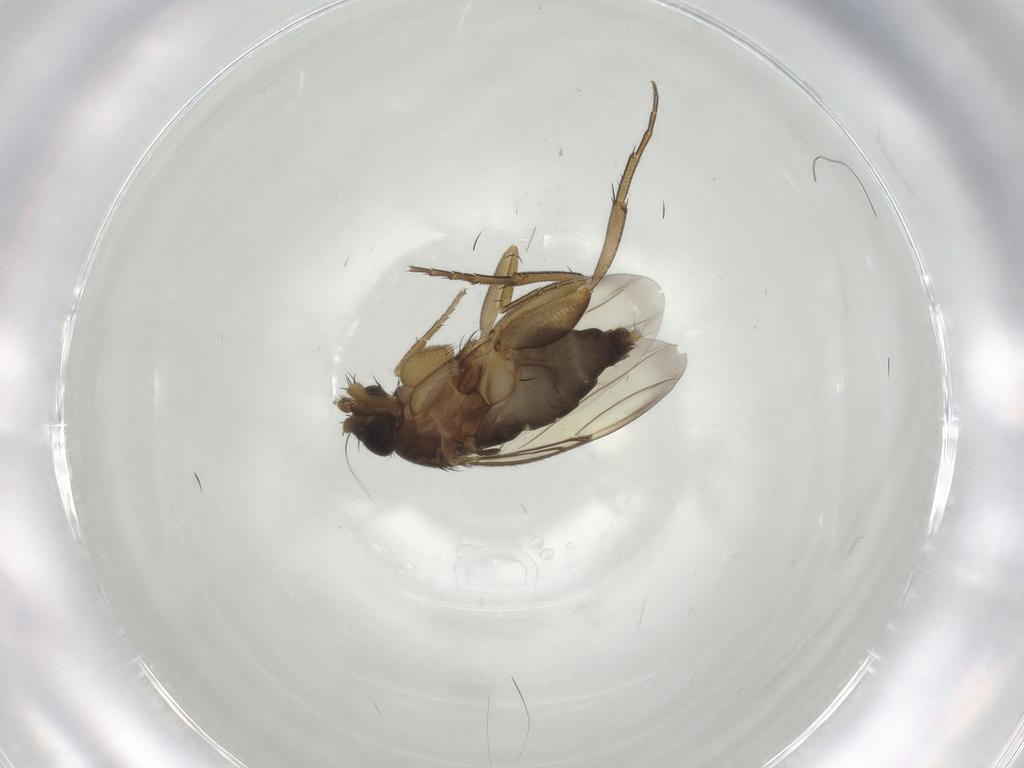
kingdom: Animalia
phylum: Arthropoda
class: Insecta
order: Diptera
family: Phoridae
